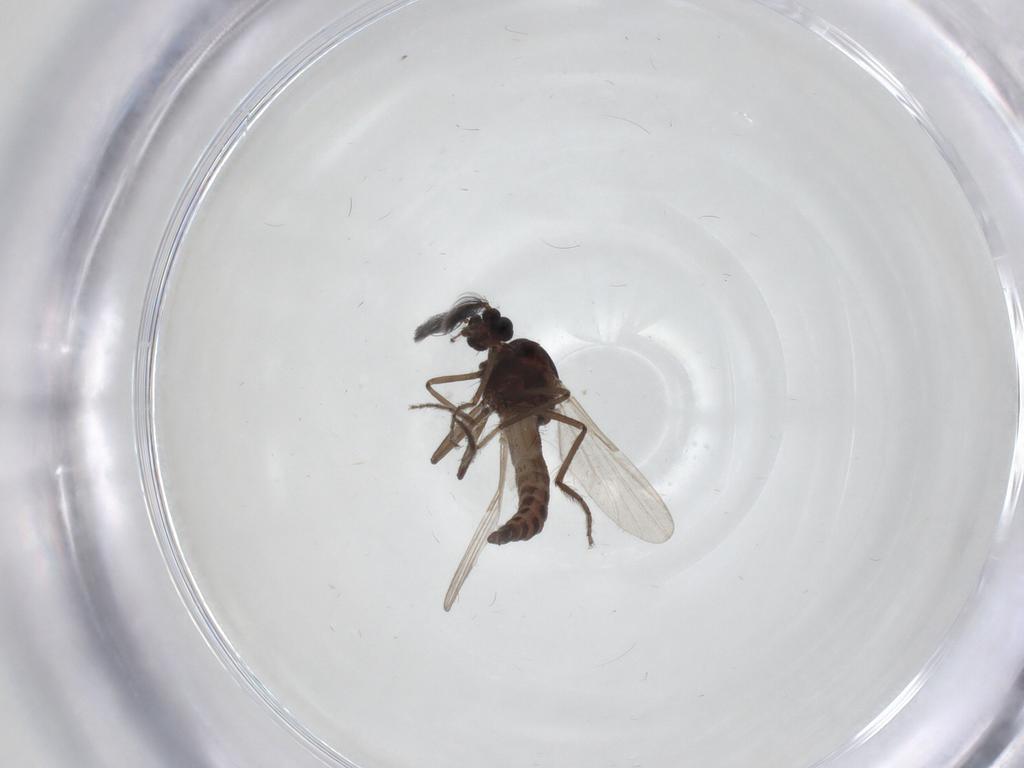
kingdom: Animalia
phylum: Arthropoda
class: Insecta
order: Diptera
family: Ceratopogonidae
